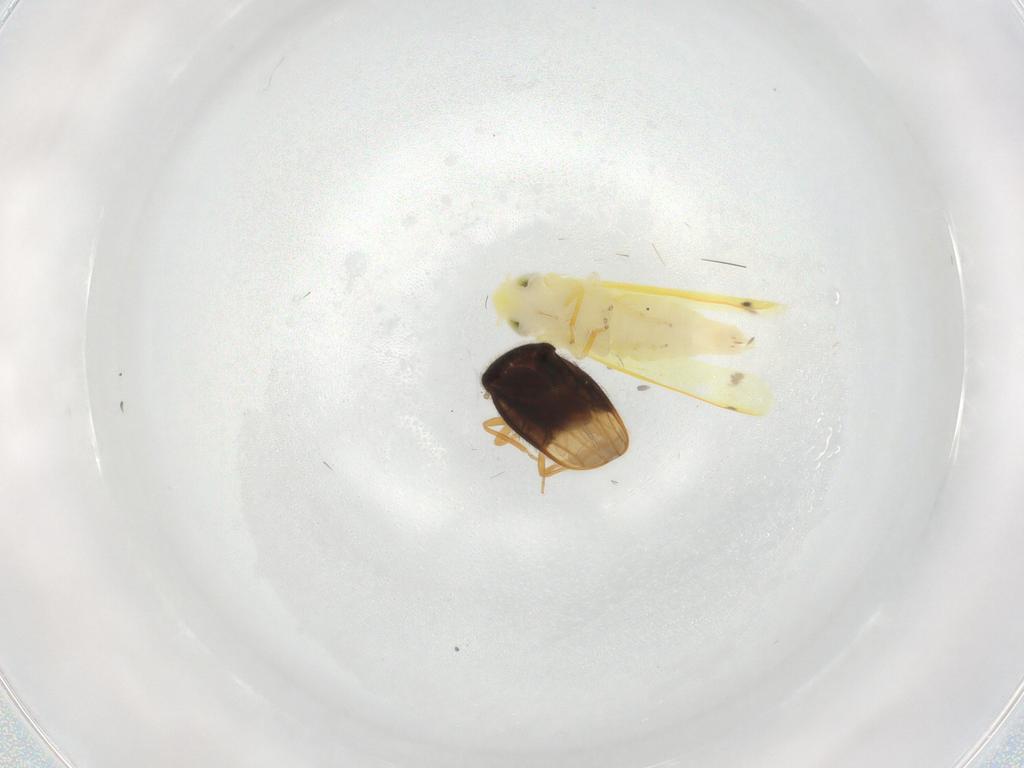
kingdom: Animalia
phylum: Arthropoda
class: Insecta
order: Hemiptera
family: Cicadellidae
